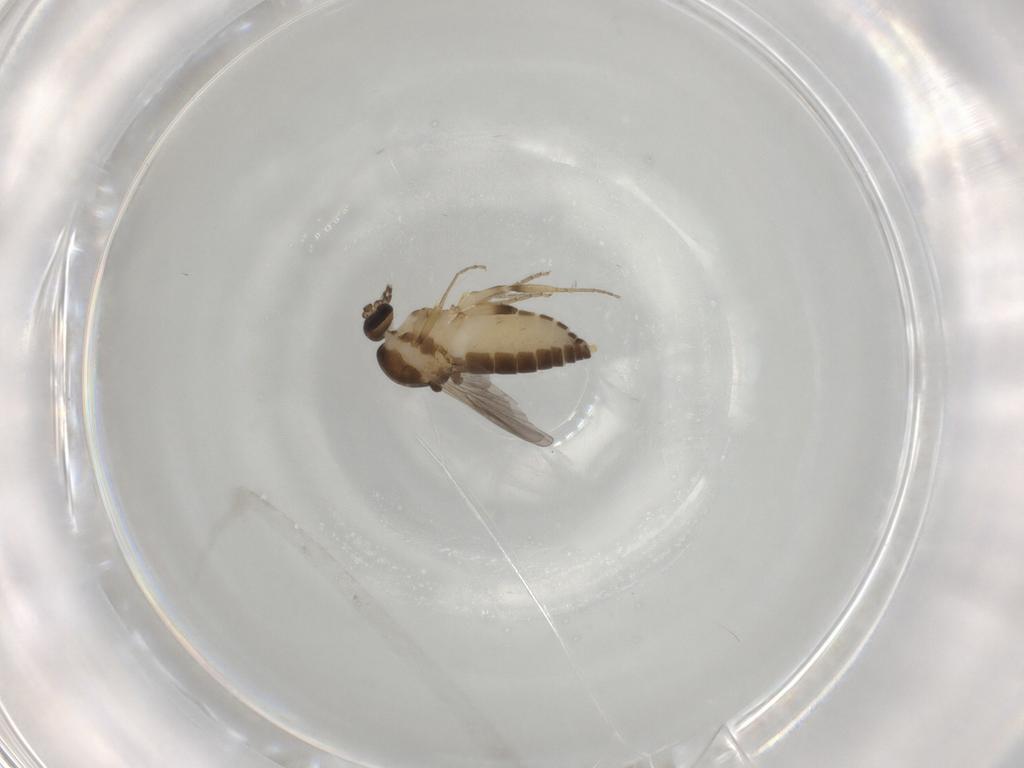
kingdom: Animalia
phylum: Arthropoda
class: Insecta
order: Diptera
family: Ceratopogonidae
